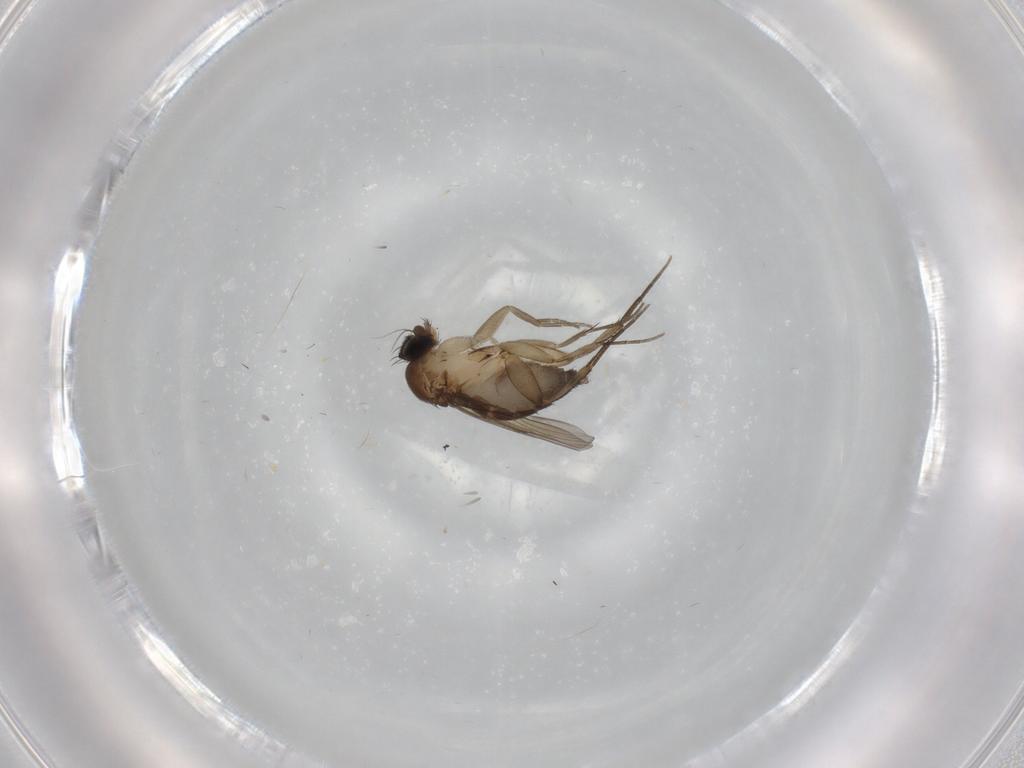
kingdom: Animalia
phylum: Arthropoda
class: Insecta
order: Diptera
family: Phoridae
